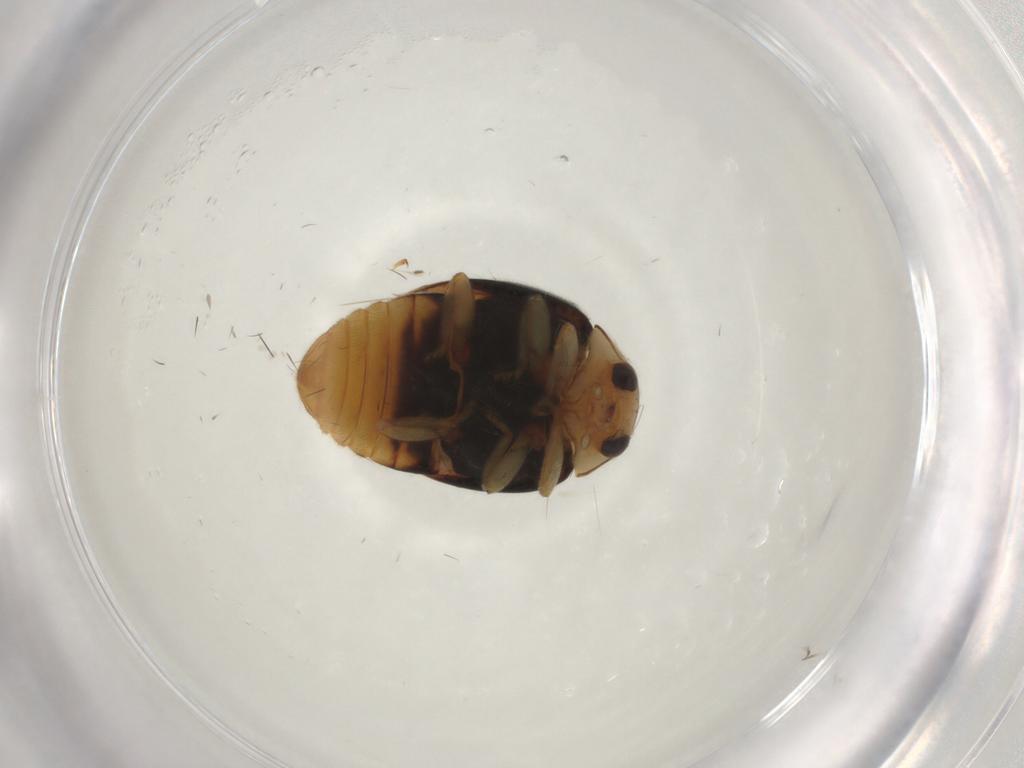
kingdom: Animalia
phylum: Arthropoda
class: Insecta
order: Coleoptera
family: Coccinellidae
